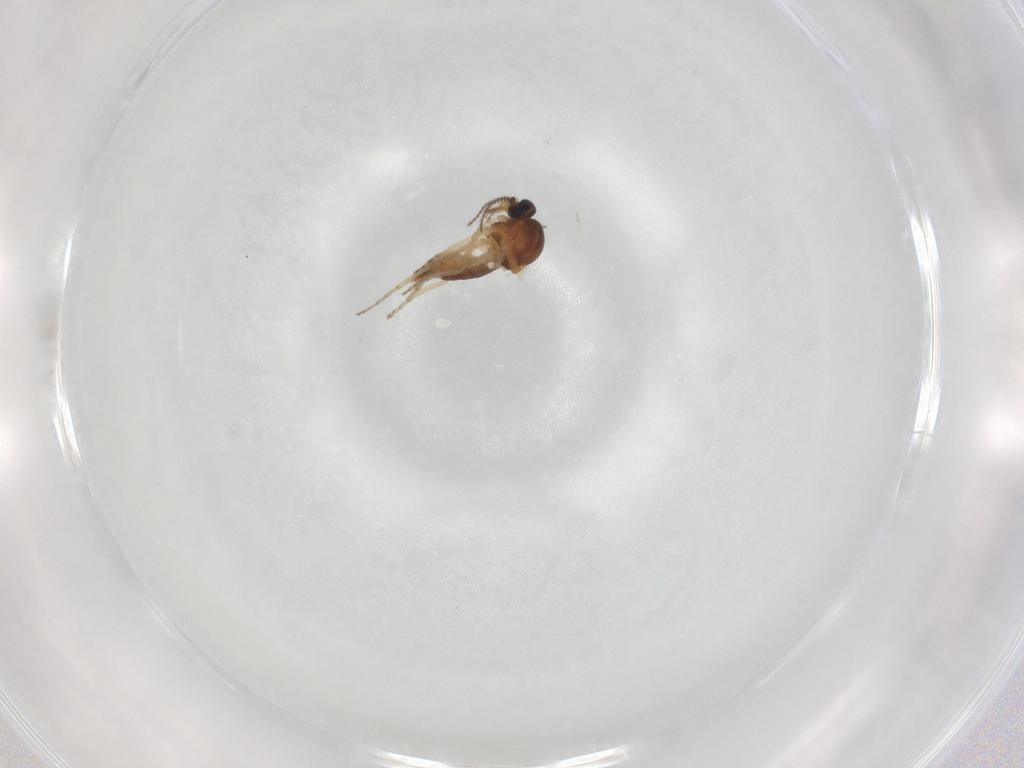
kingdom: Animalia
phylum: Arthropoda
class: Insecta
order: Diptera
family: Ceratopogonidae
